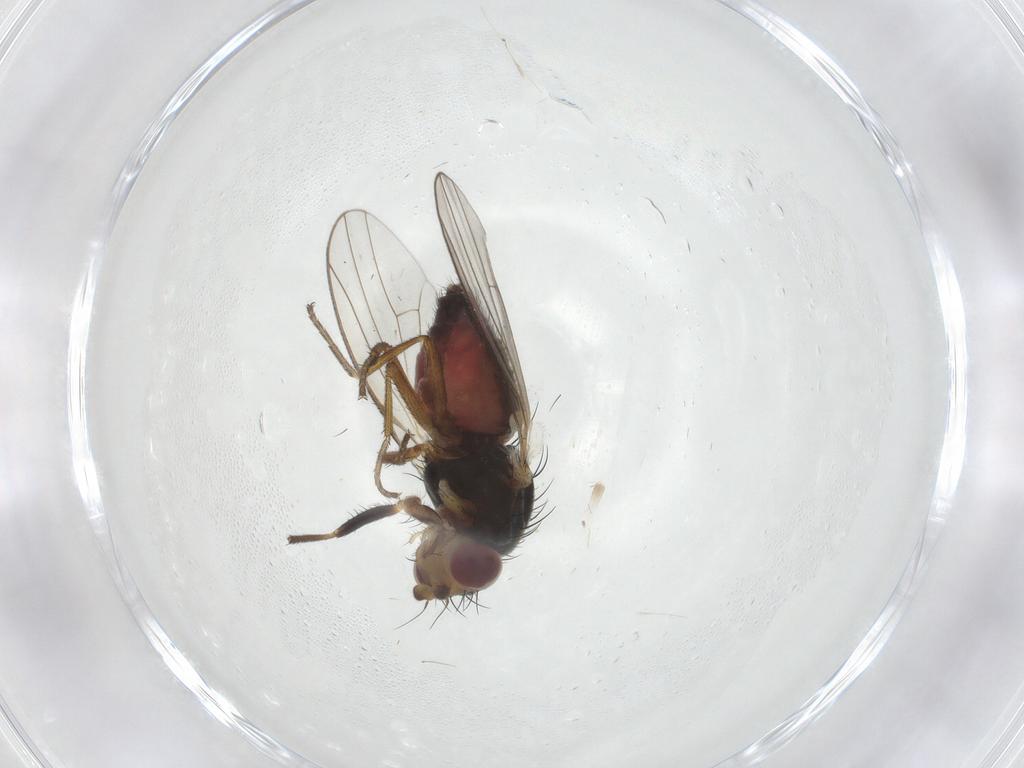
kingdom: Animalia
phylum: Arthropoda
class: Insecta
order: Diptera
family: Heleomyzidae
